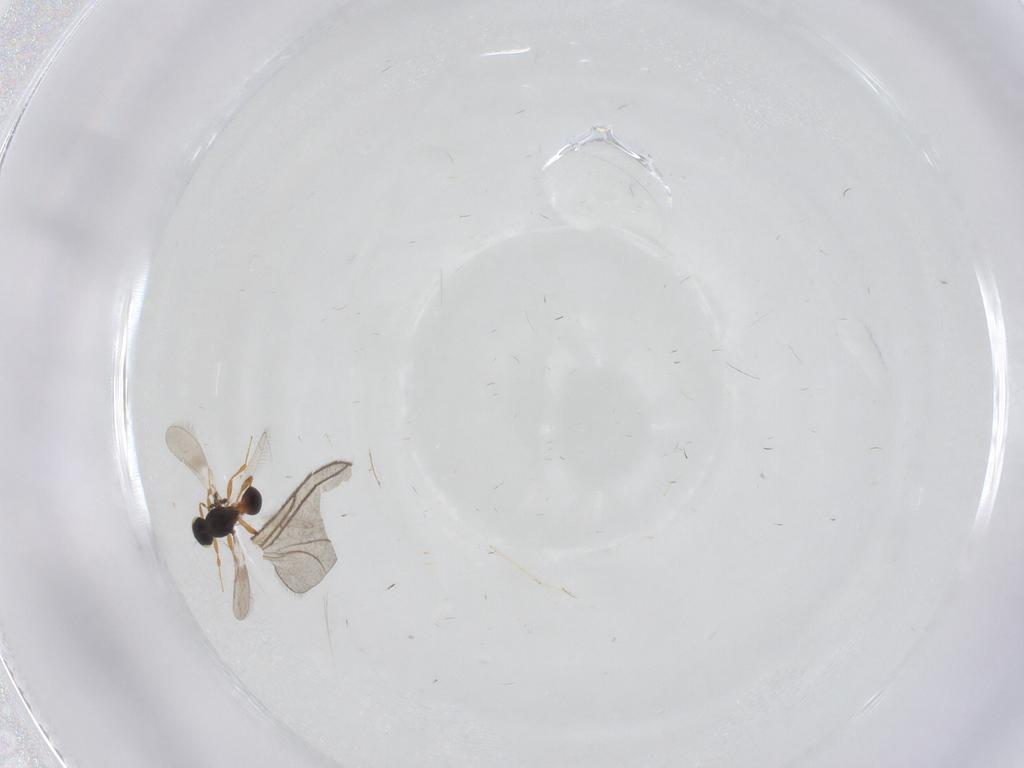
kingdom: Animalia
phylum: Arthropoda
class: Insecta
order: Hymenoptera
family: Platygastridae
